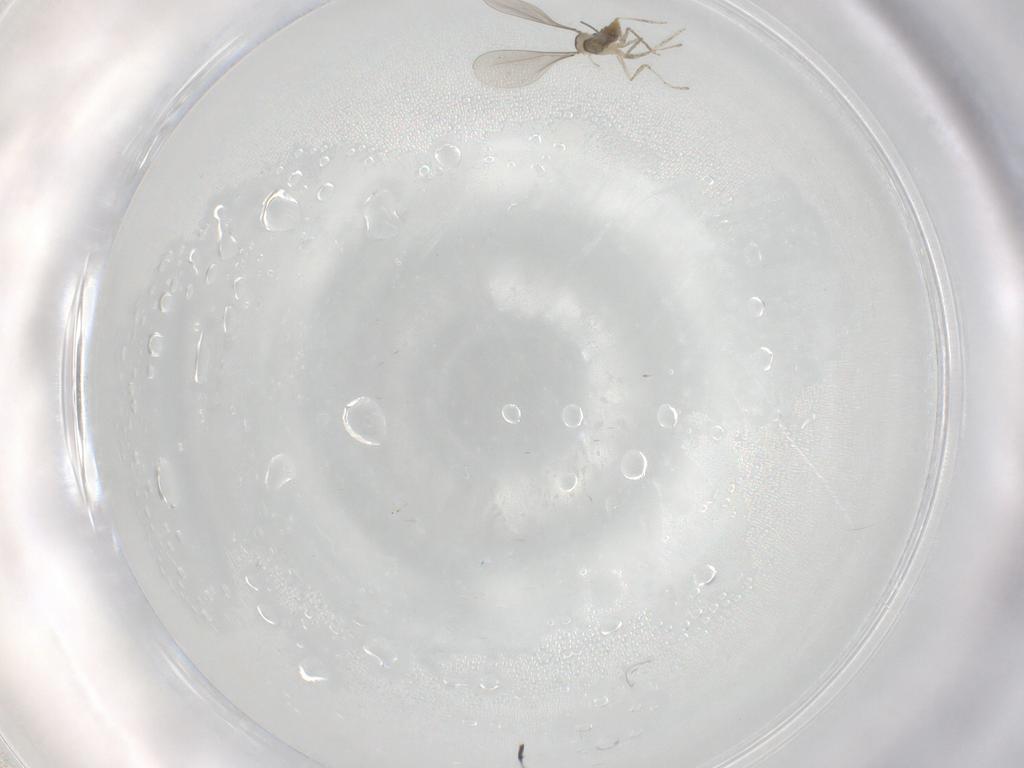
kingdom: Animalia
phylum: Arthropoda
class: Insecta
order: Diptera
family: Cecidomyiidae
